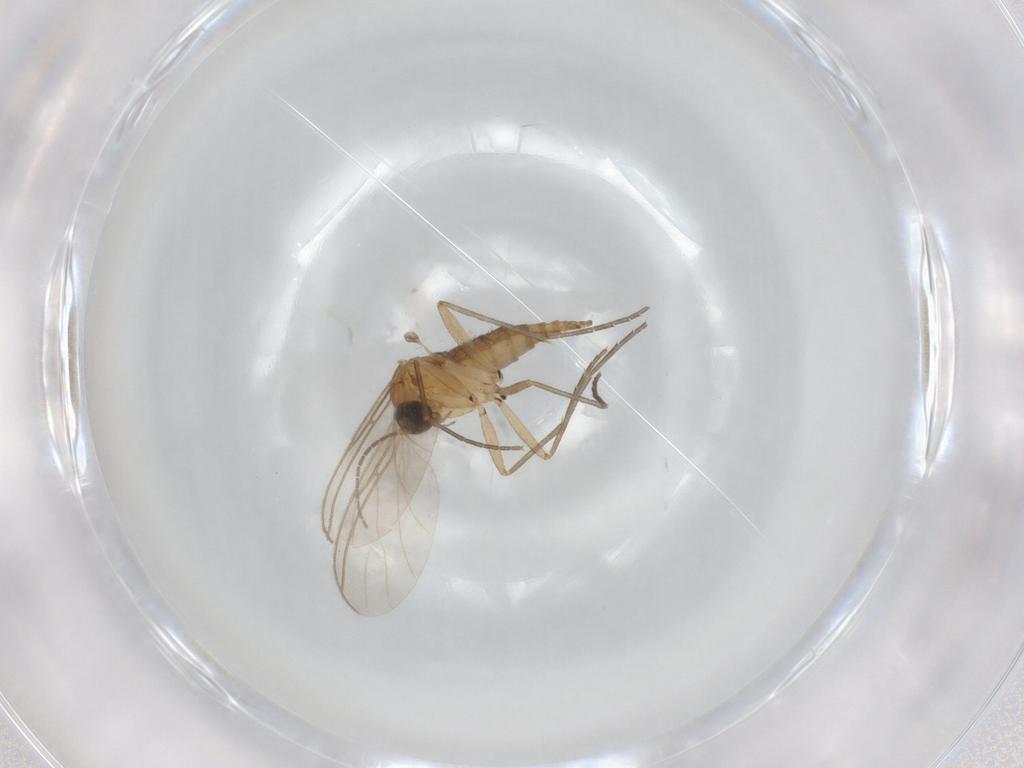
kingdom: Animalia
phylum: Arthropoda
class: Insecta
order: Diptera
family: Sciaridae
